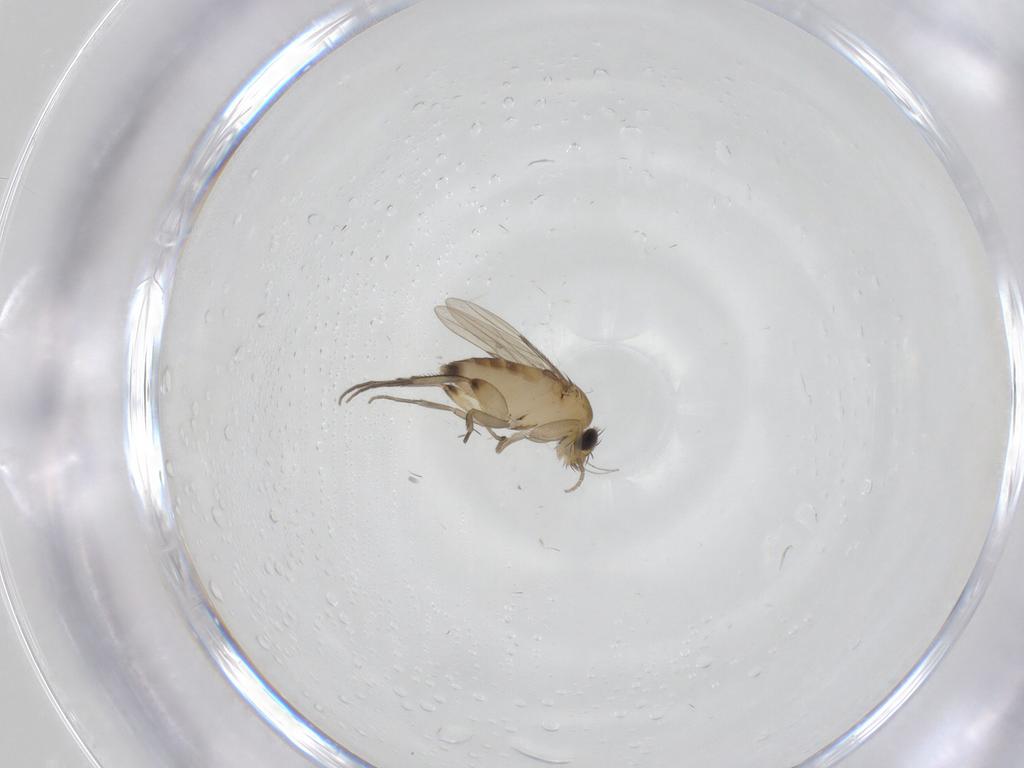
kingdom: Animalia
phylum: Arthropoda
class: Insecta
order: Diptera
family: Phoridae
